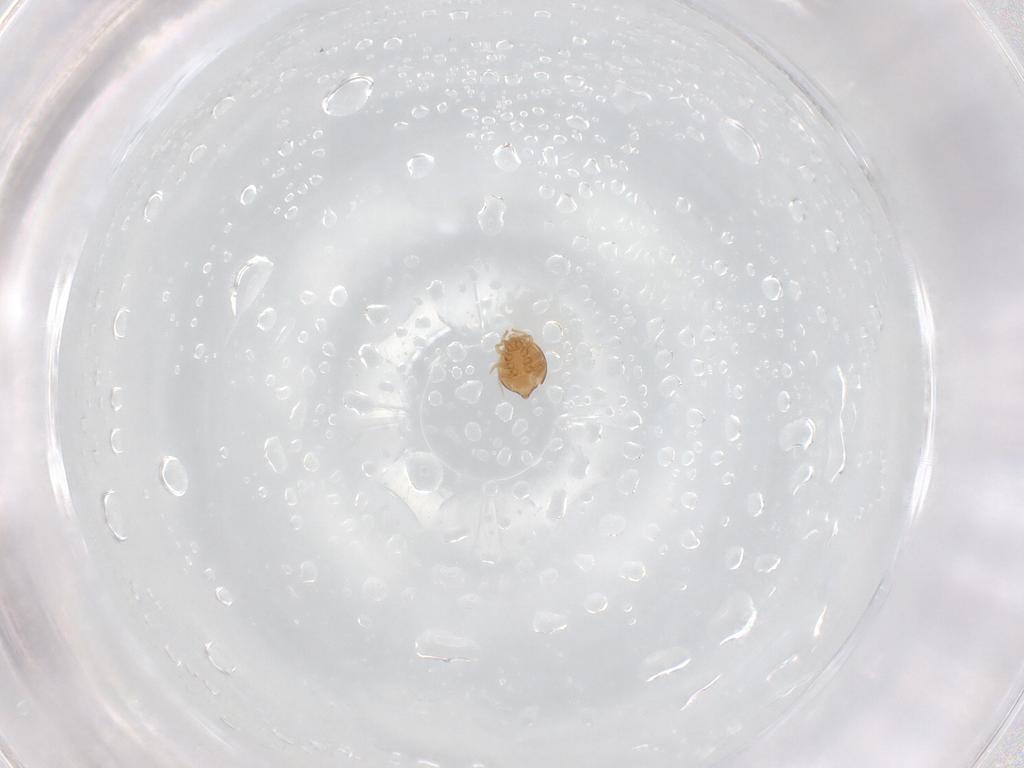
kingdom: Animalia
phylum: Arthropoda
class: Arachnida
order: Mesostigmata
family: Polyaspididae
